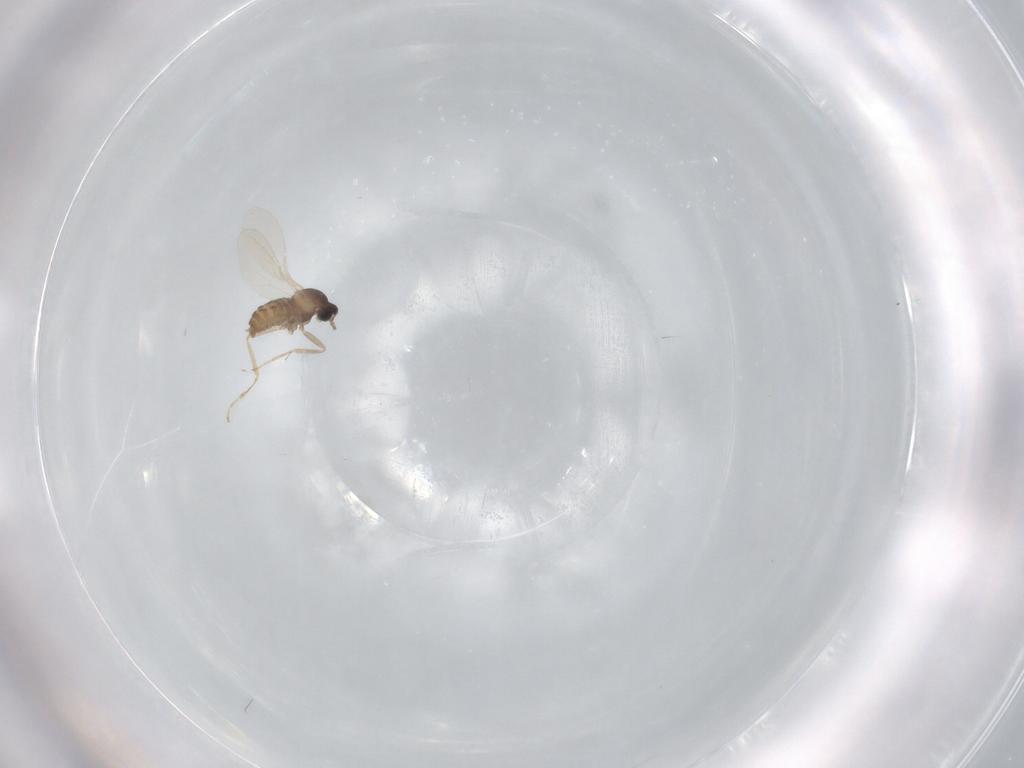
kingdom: Animalia
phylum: Arthropoda
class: Insecta
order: Diptera
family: Cecidomyiidae
